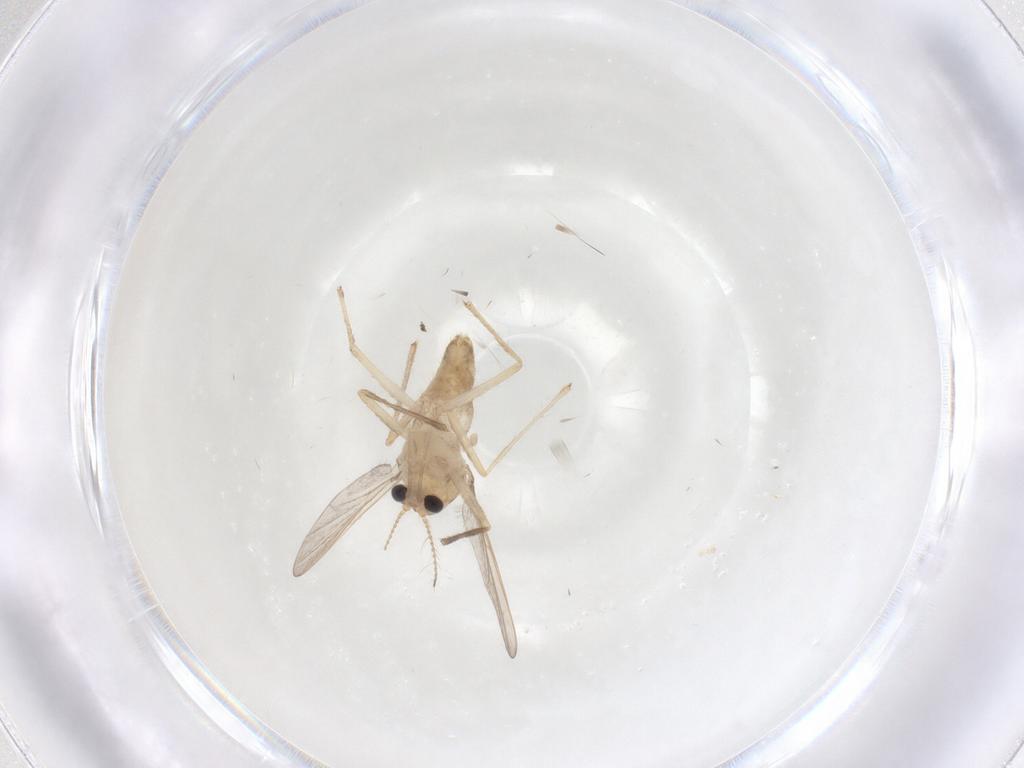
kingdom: Animalia
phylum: Arthropoda
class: Insecta
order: Diptera
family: Chironomidae
